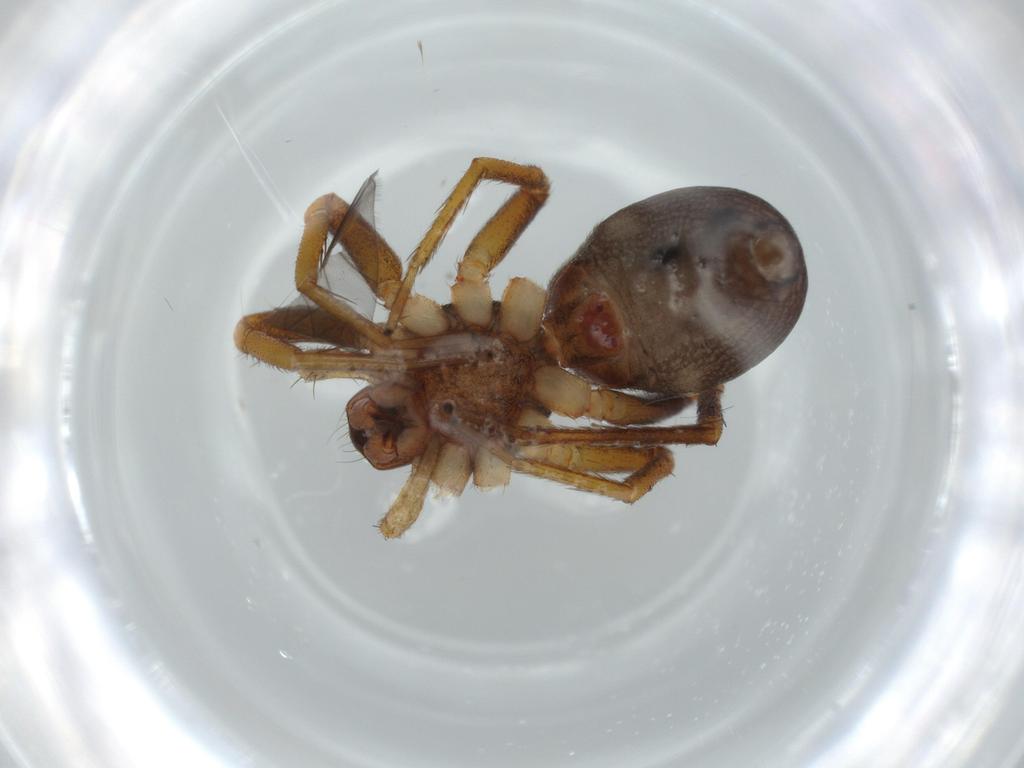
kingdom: Animalia
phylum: Arthropoda
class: Arachnida
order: Araneae
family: Corinnidae
